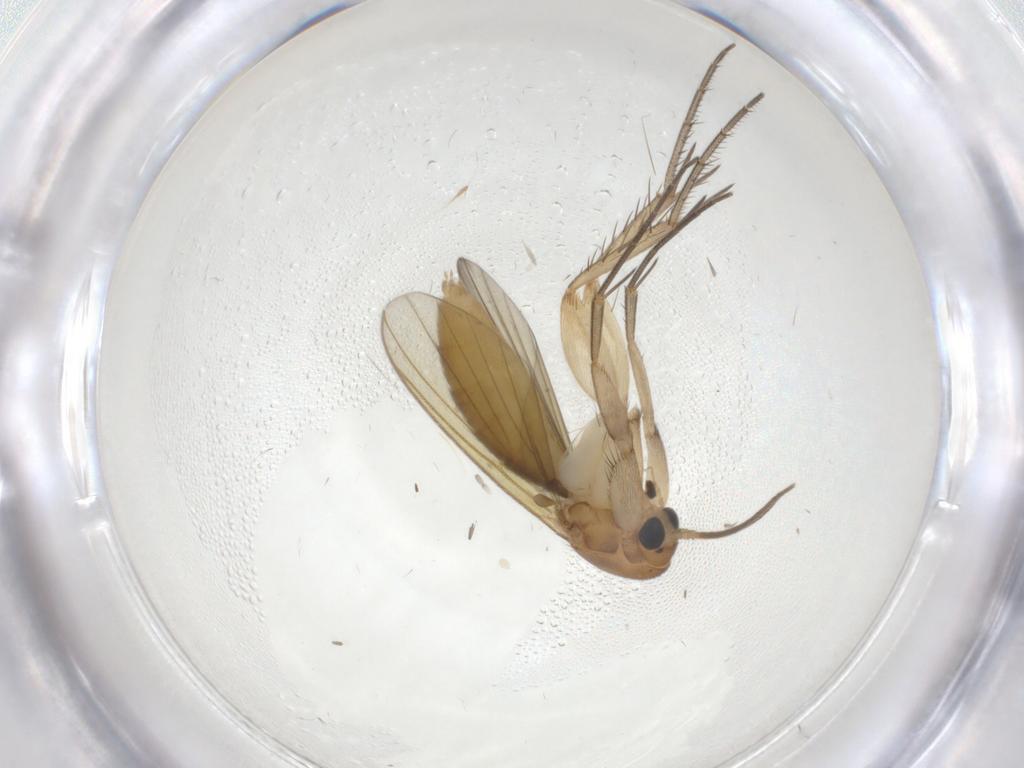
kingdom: Animalia
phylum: Arthropoda
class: Insecta
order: Diptera
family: Mycetophilidae
